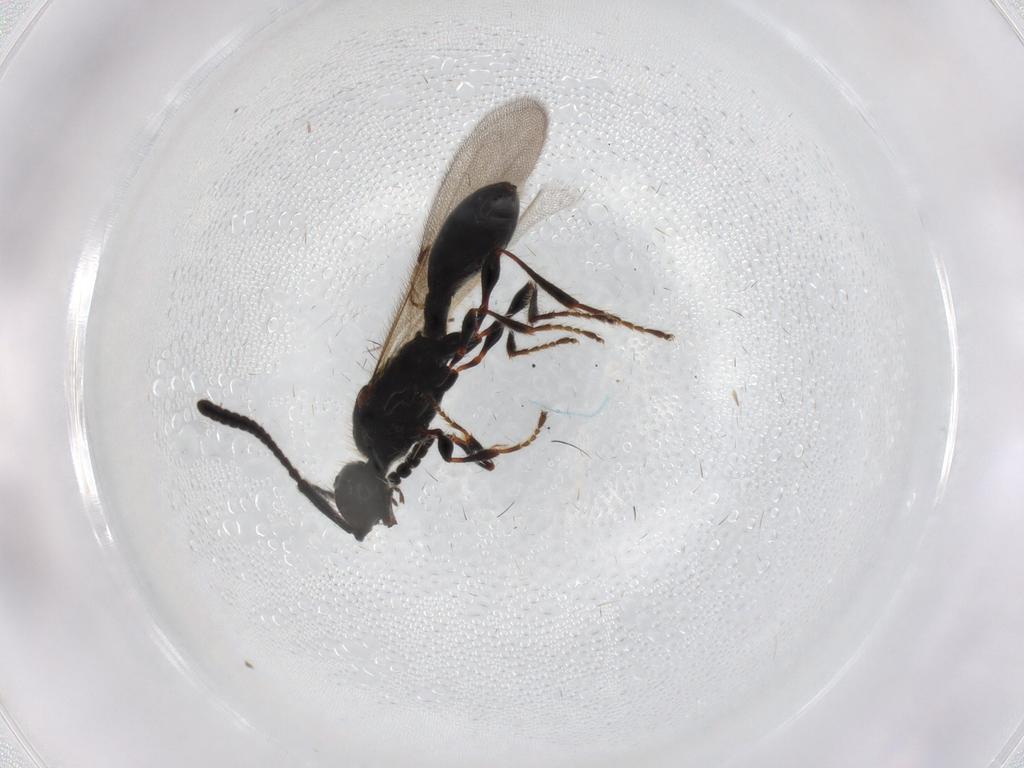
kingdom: Animalia
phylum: Arthropoda
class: Insecta
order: Hymenoptera
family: Diapriidae
